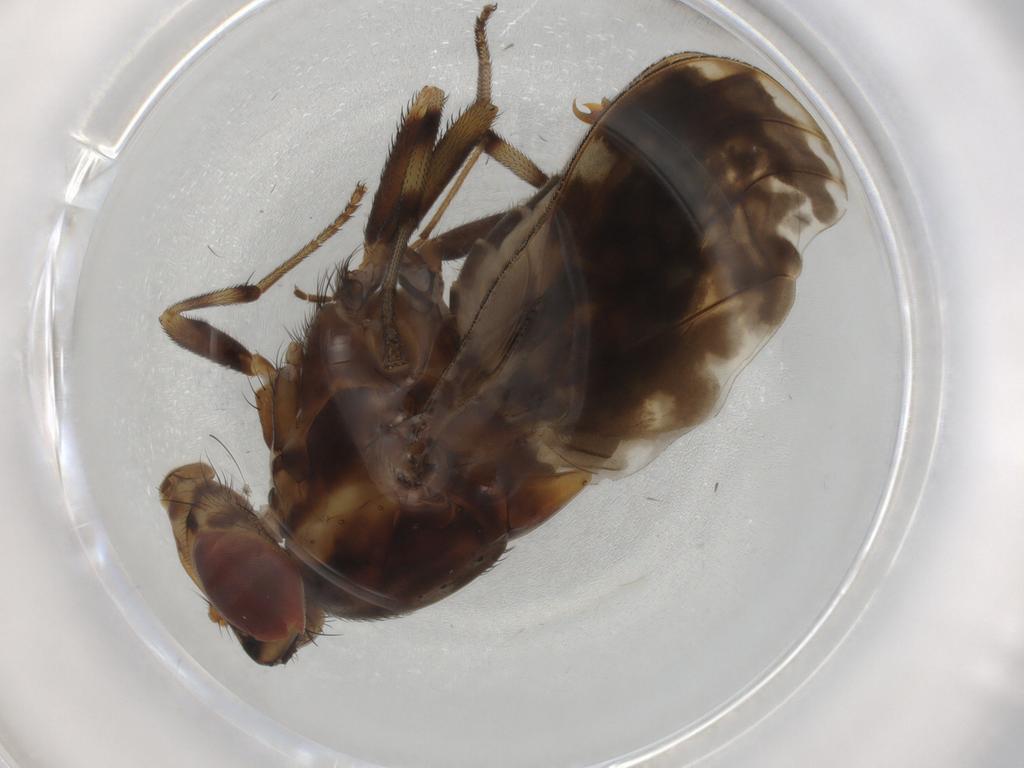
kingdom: Animalia
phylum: Arthropoda
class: Insecta
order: Diptera
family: Mycetophilidae
